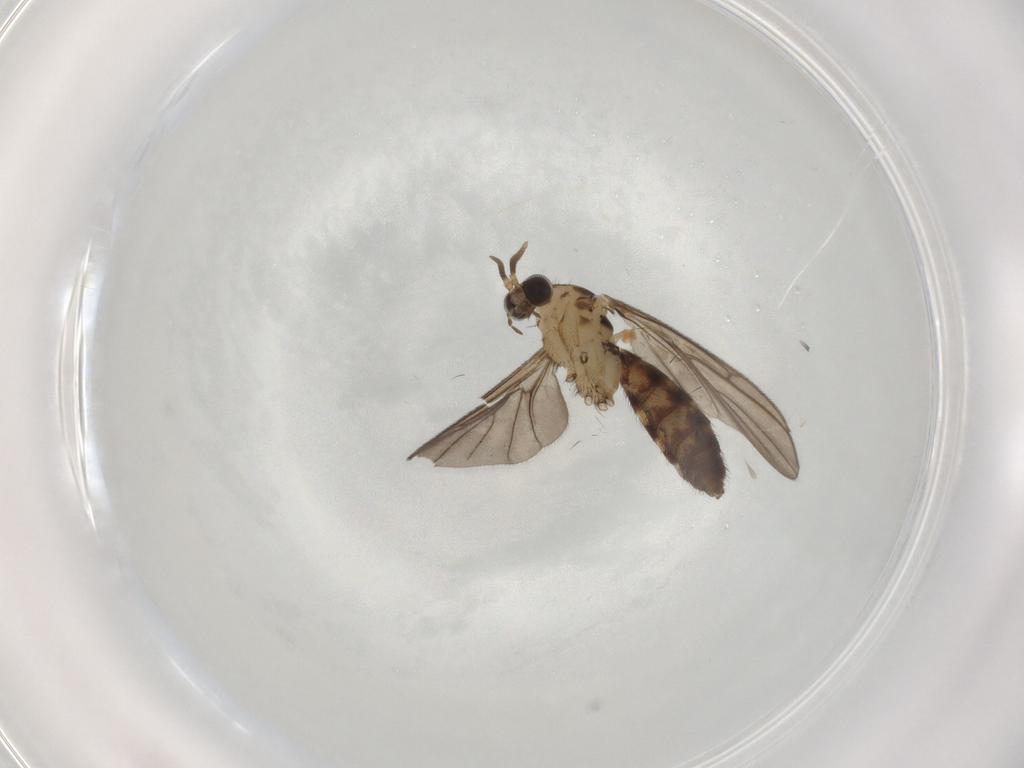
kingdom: Animalia
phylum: Arthropoda
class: Insecta
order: Diptera
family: Keroplatidae
